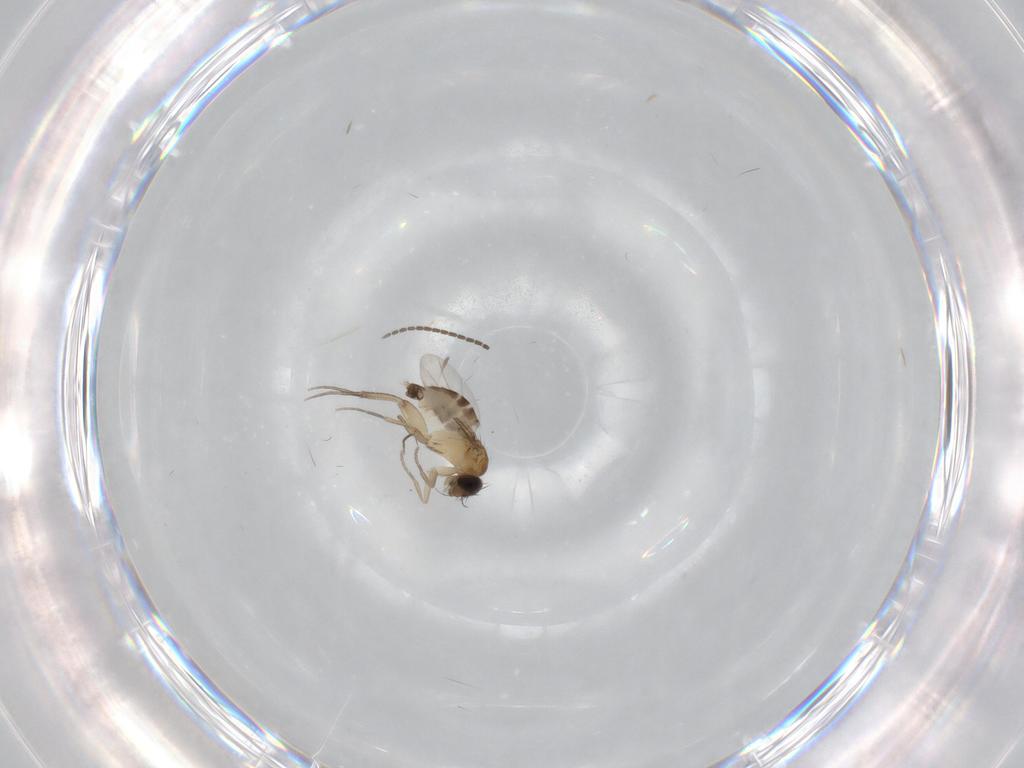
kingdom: Animalia
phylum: Arthropoda
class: Insecta
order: Diptera
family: Phoridae
